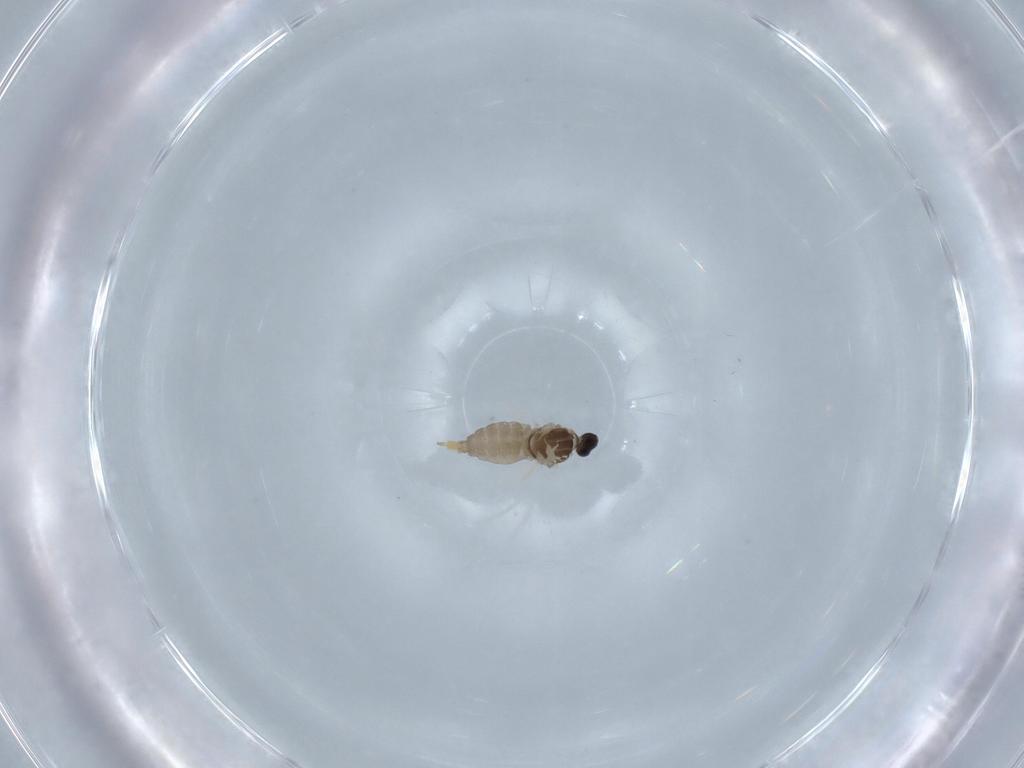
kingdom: Animalia
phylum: Arthropoda
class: Insecta
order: Diptera
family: Cecidomyiidae
